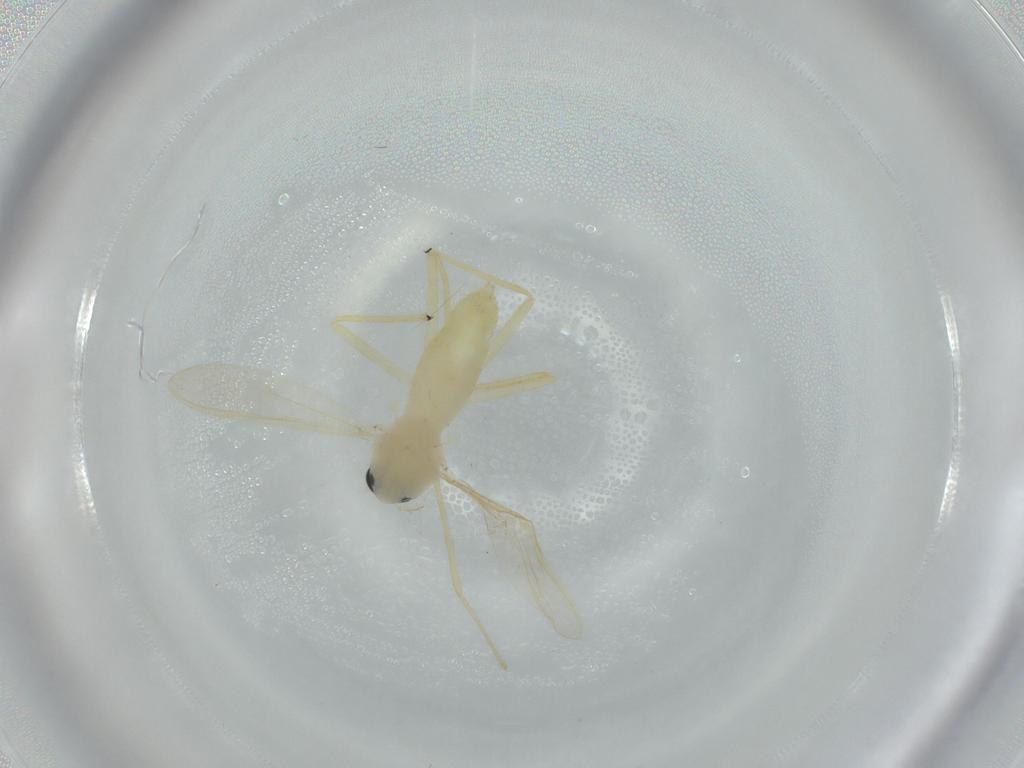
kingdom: Animalia
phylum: Arthropoda
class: Insecta
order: Diptera
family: Chironomidae
